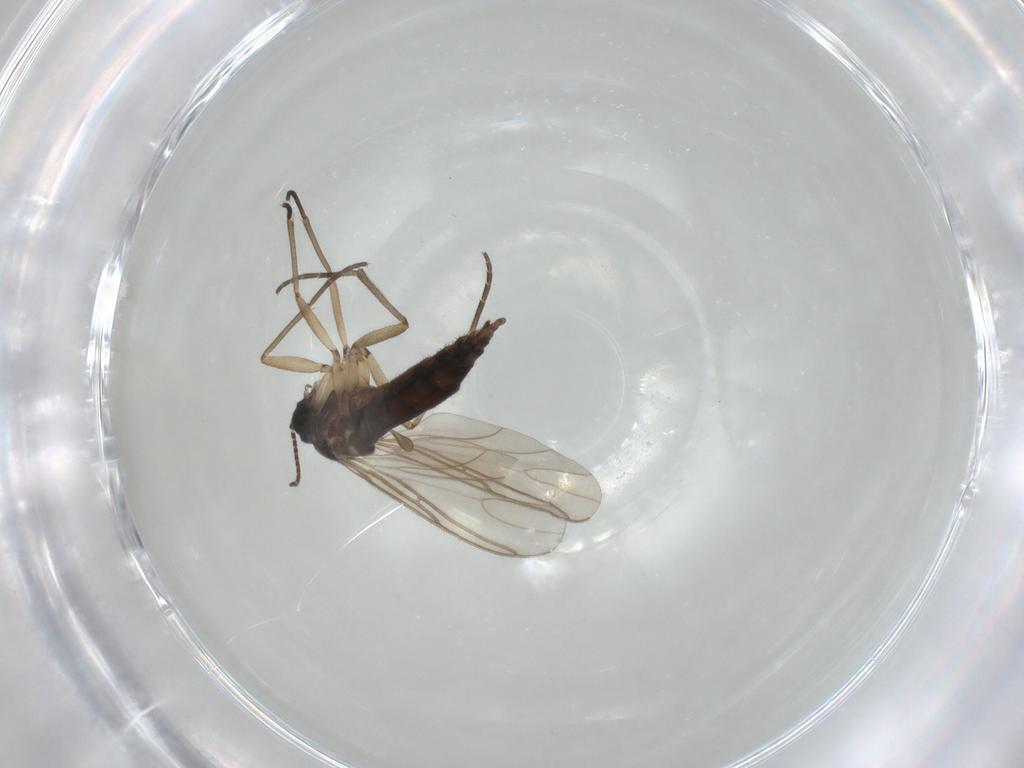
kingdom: Animalia
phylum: Arthropoda
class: Insecta
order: Diptera
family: Sciaridae
